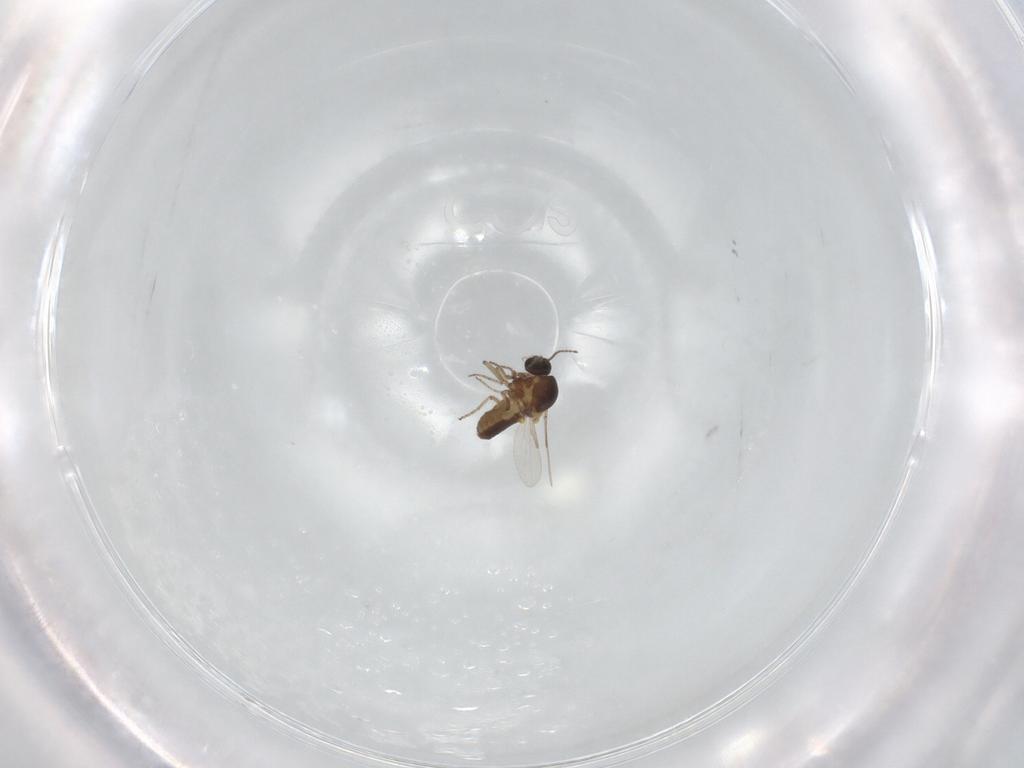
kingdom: Animalia
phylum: Arthropoda
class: Insecta
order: Diptera
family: Ceratopogonidae
